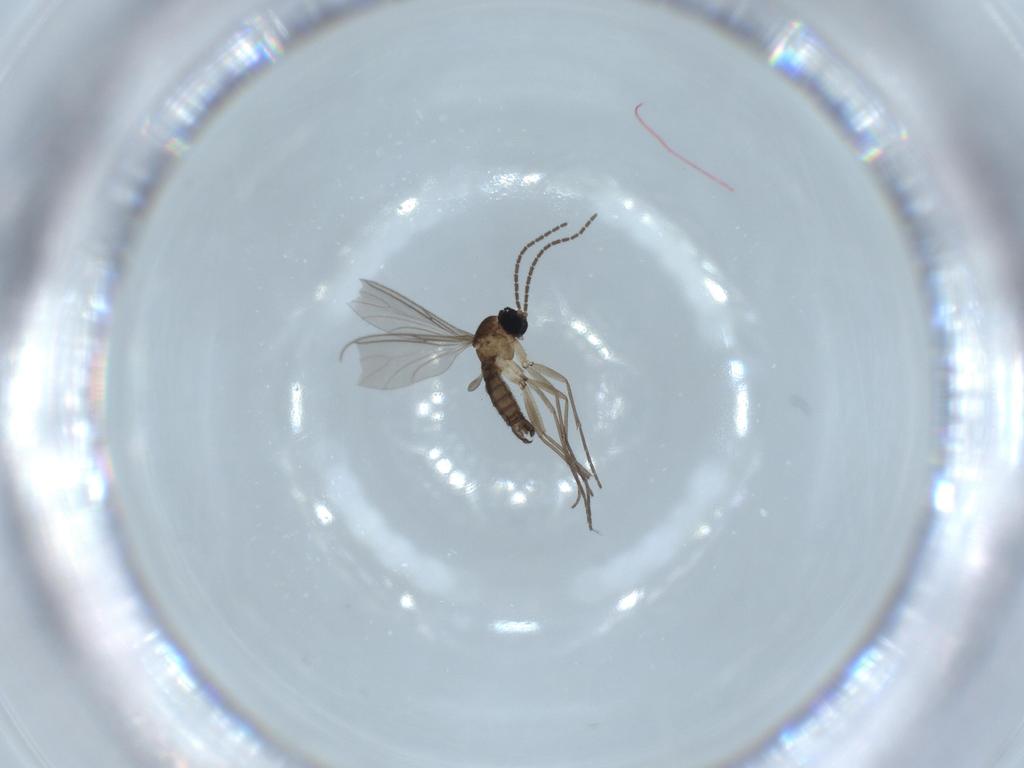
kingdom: Animalia
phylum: Arthropoda
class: Insecta
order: Diptera
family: Sciaridae
